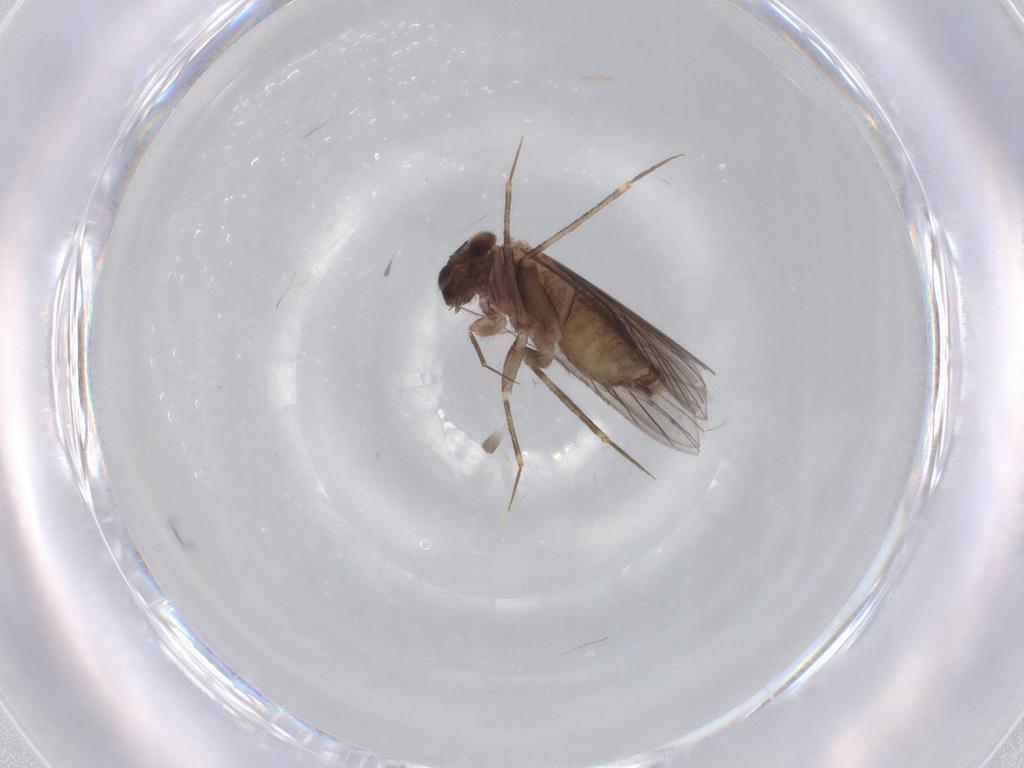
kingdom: Animalia
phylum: Arthropoda
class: Insecta
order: Psocodea
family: Lepidopsocidae
